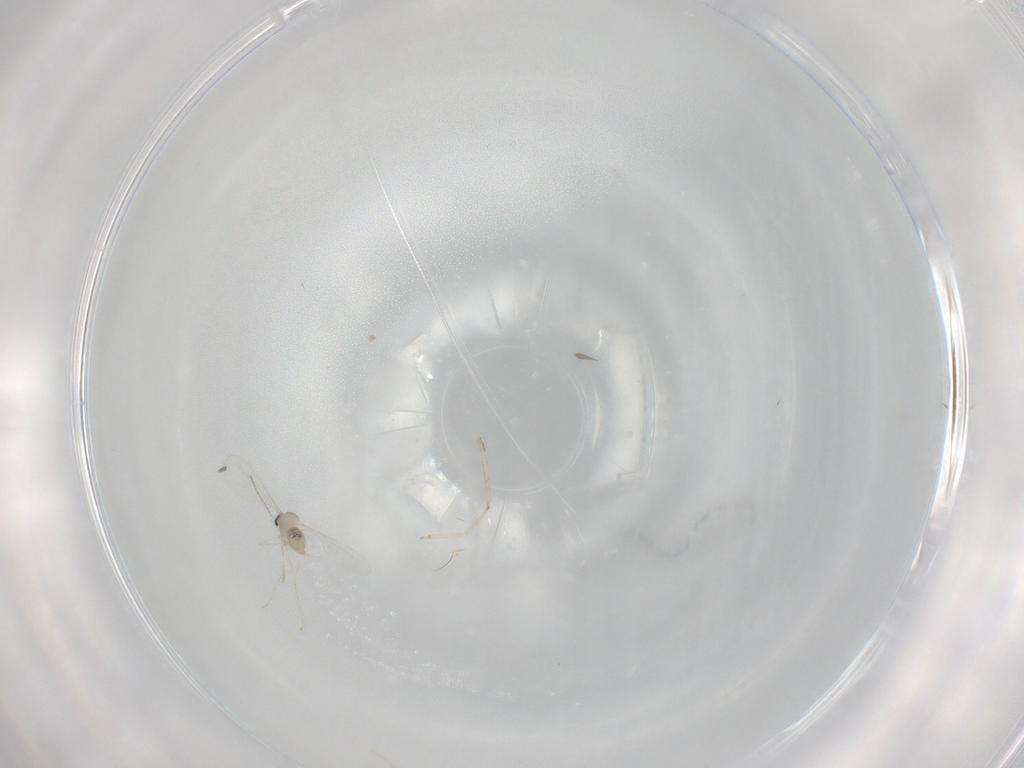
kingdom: Animalia
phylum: Arthropoda
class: Insecta
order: Diptera
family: Ceratopogonidae
